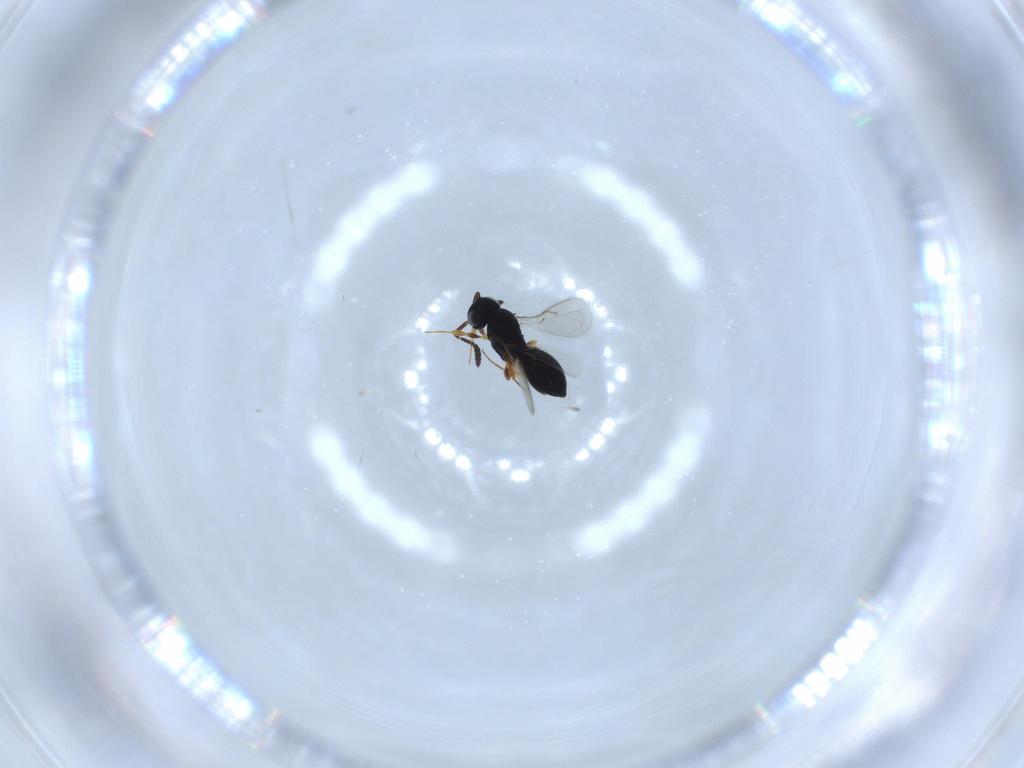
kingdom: Animalia
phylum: Arthropoda
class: Insecta
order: Hymenoptera
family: Scelionidae
